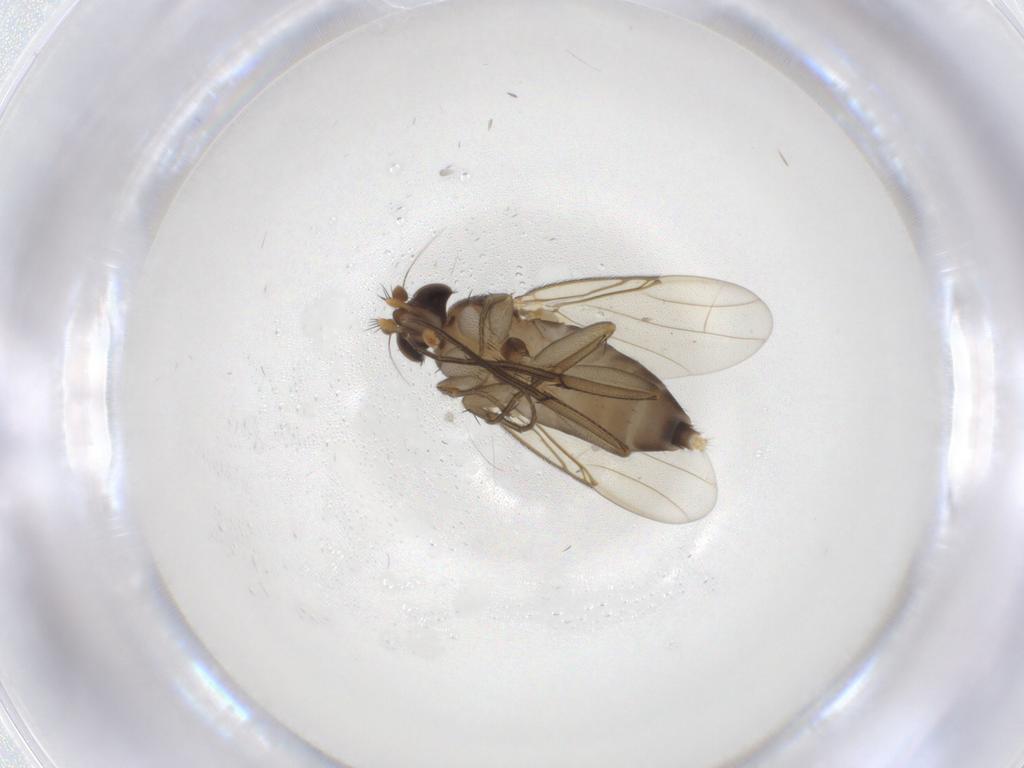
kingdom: Animalia
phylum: Arthropoda
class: Insecta
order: Diptera
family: Phoridae
